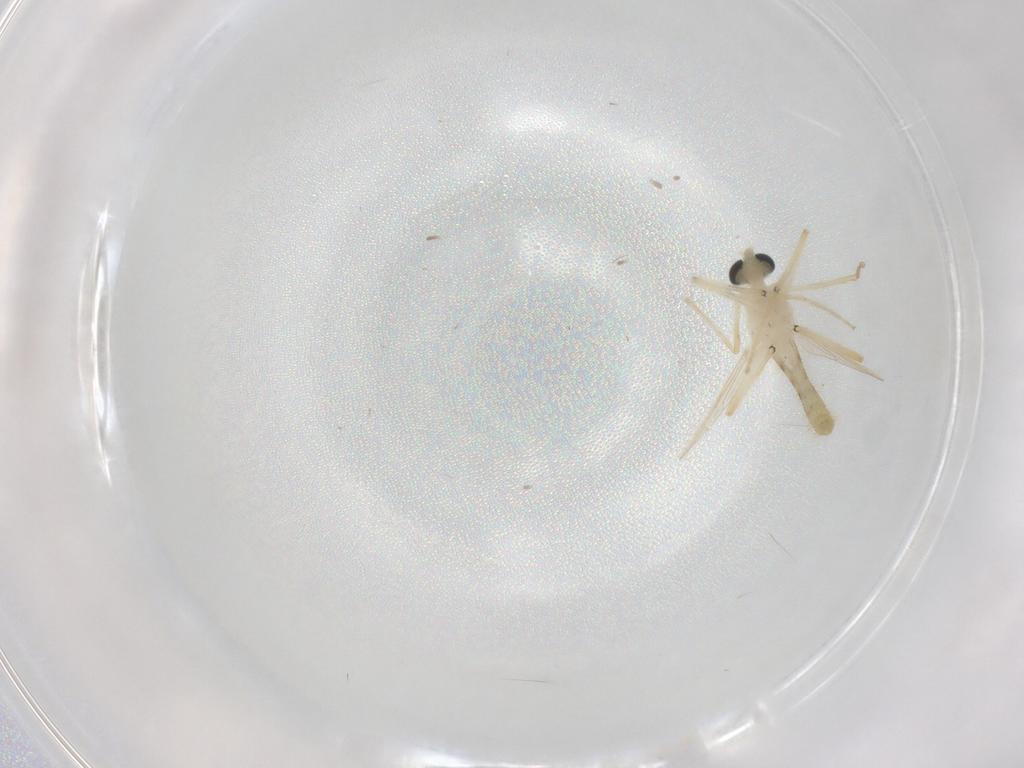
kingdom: Animalia
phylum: Arthropoda
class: Insecta
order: Diptera
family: Chironomidae
